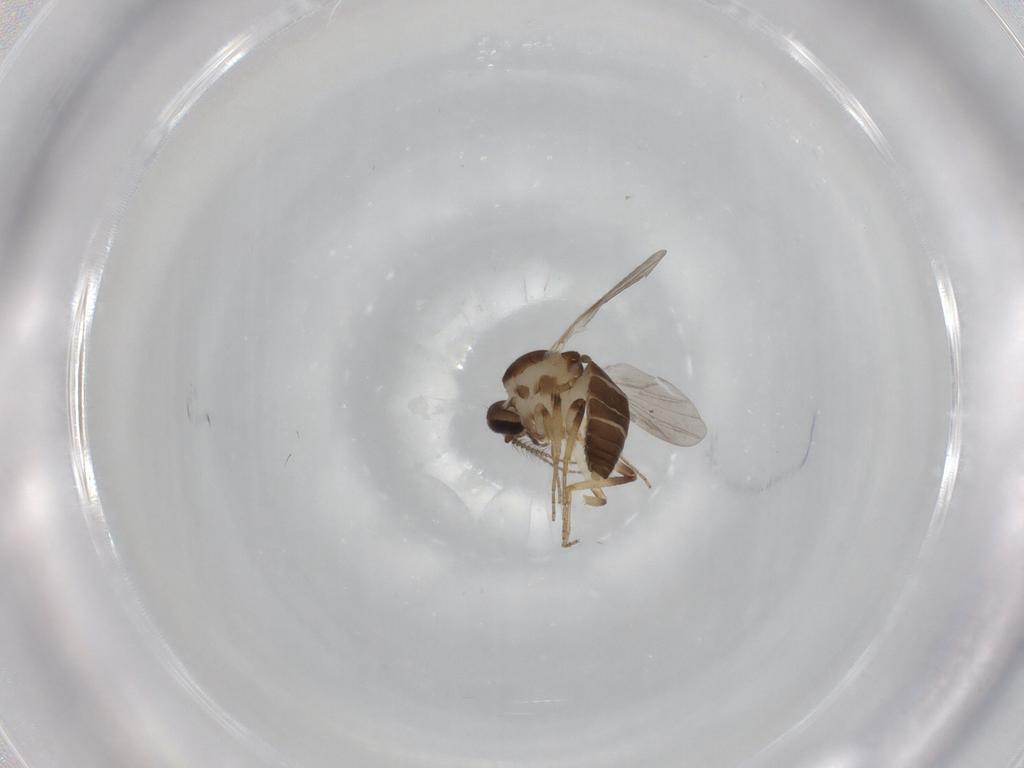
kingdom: Animalia
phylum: Arthropoda
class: Insecta
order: Diptera
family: Ceratopogonidae
